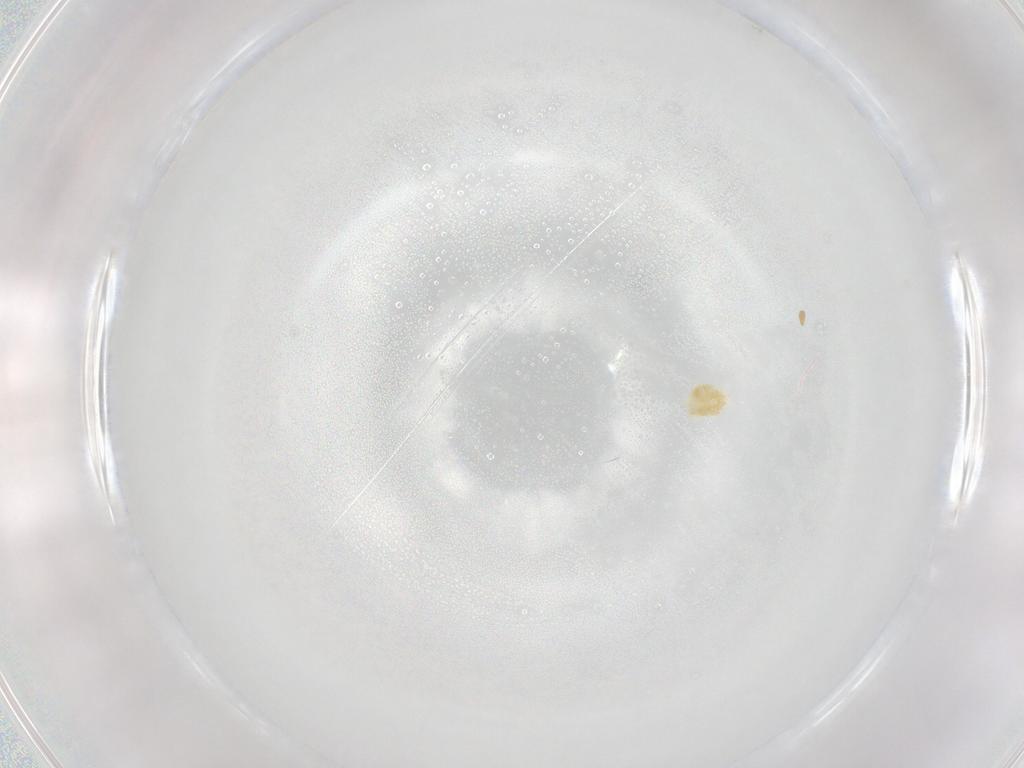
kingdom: Animalia
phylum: Arthropoda
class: Arachnida
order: Trombidiformes
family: Eupodidae
